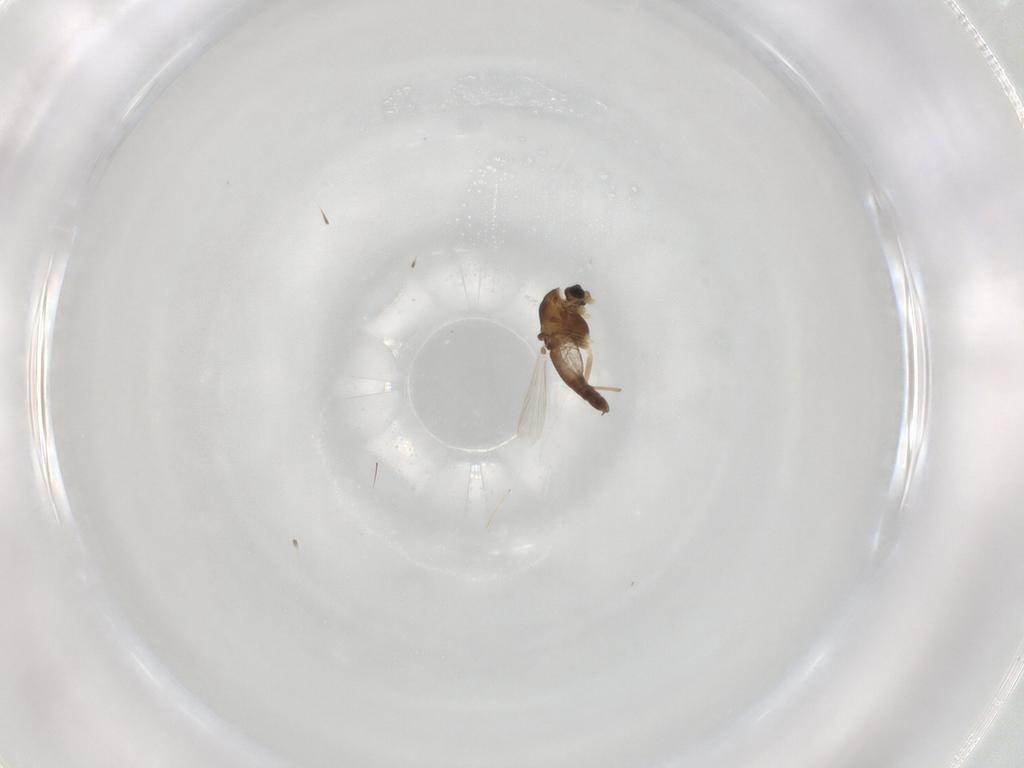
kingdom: Animalia
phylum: Arthropoda
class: Insecta
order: Diptera
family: Chironomidae
